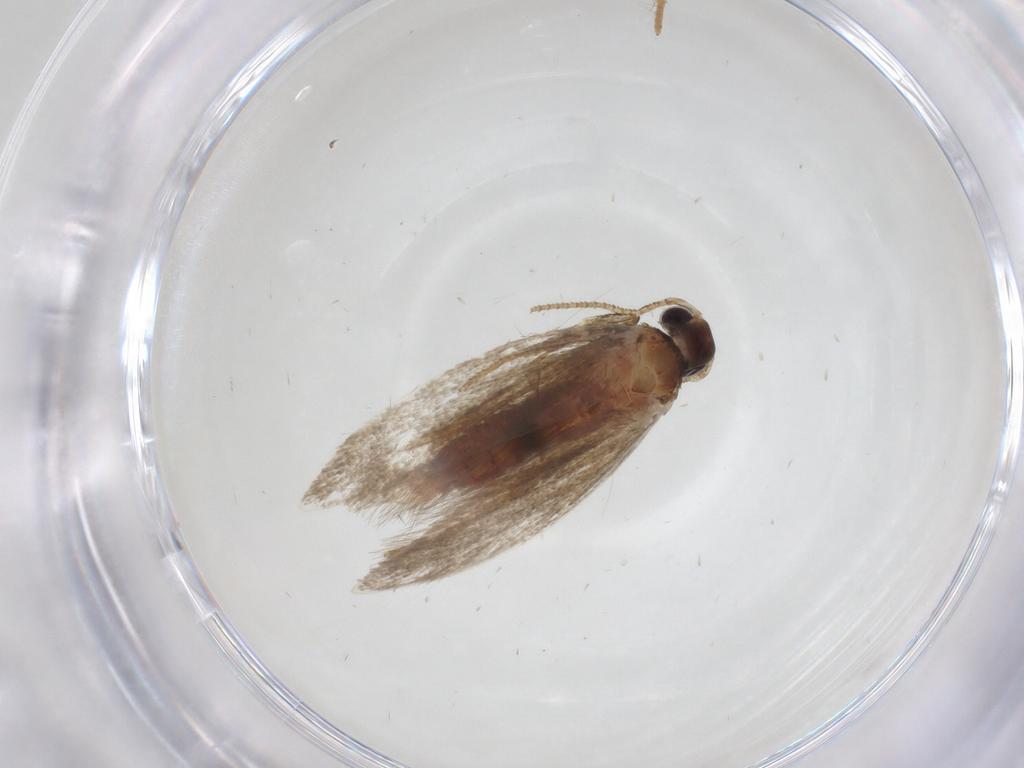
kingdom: Animalia
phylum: Arthropoda
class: Insecta
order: Lepidoptera
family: Gelechiidae
